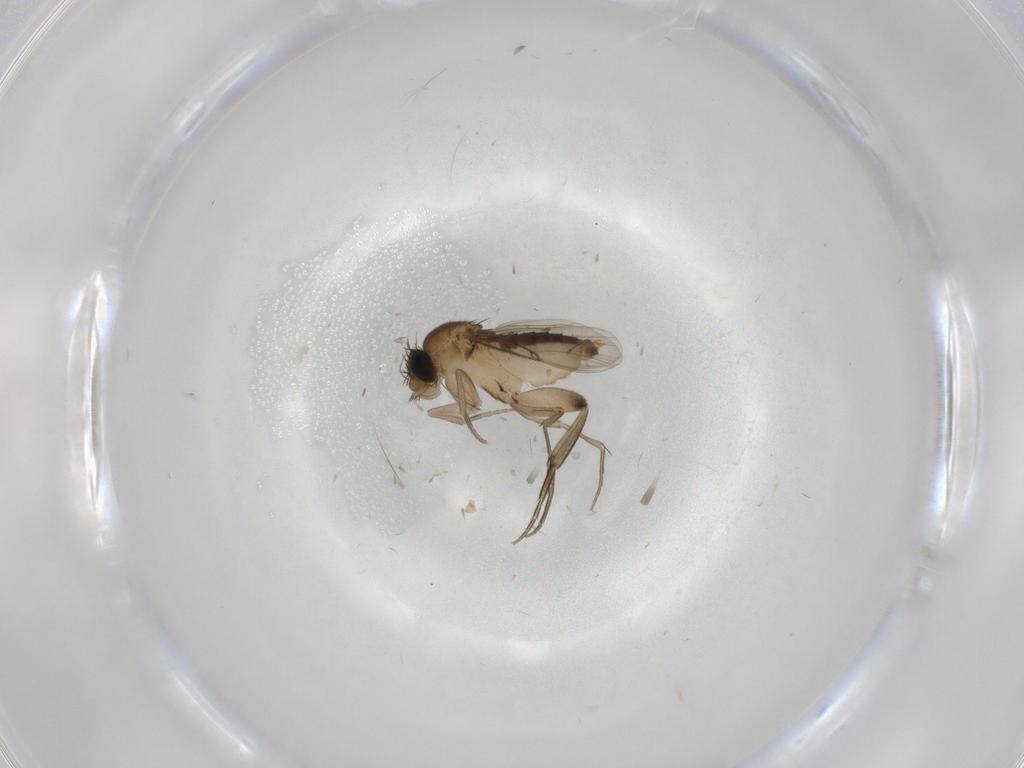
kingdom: Animalia
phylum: Arthropoda
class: Insecta
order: Diptera
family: Phoridae
